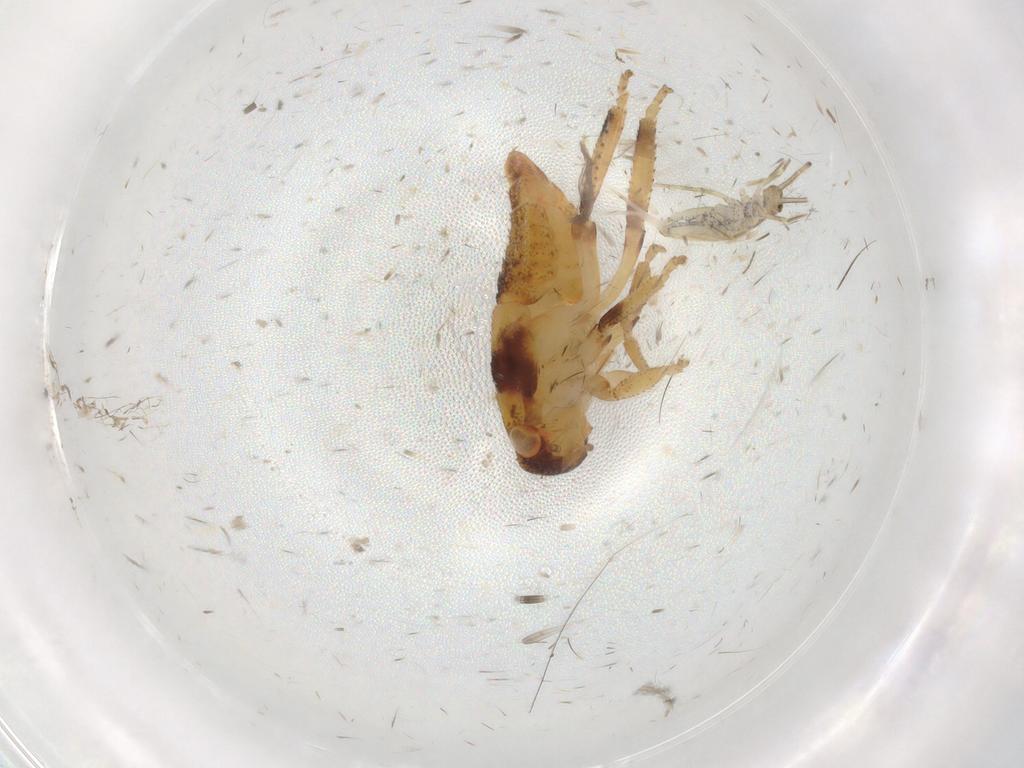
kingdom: Animalia
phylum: Arthropoda
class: Collembola
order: Entomobryomorpha
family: Entomobryidae
